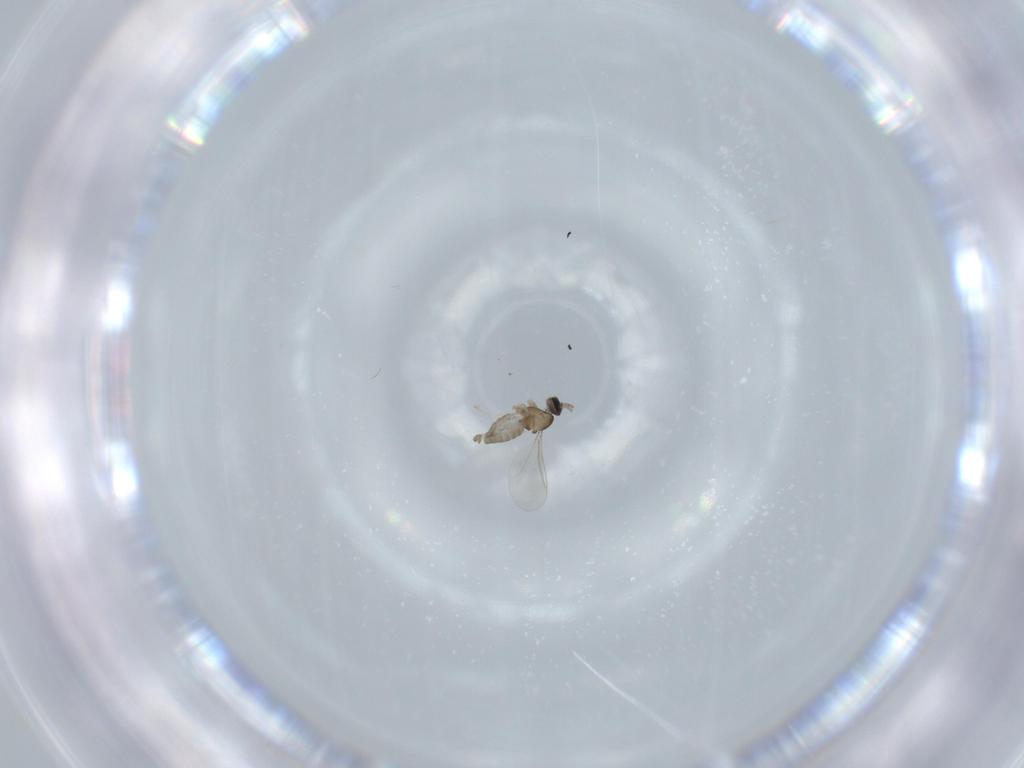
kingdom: Animalia
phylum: Arthropoda
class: Insecta
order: Diptera
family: Cecidomyiidae
